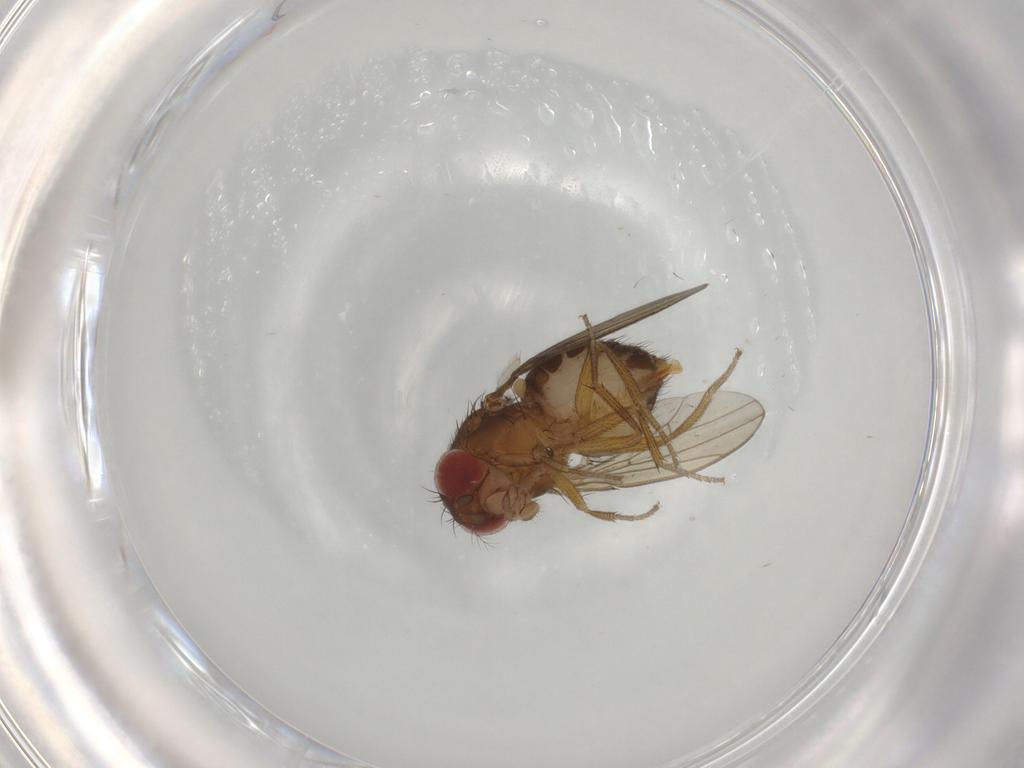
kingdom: Animalia
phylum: Arthropoda
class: Insecta
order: Diptera
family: Drosophilidae
